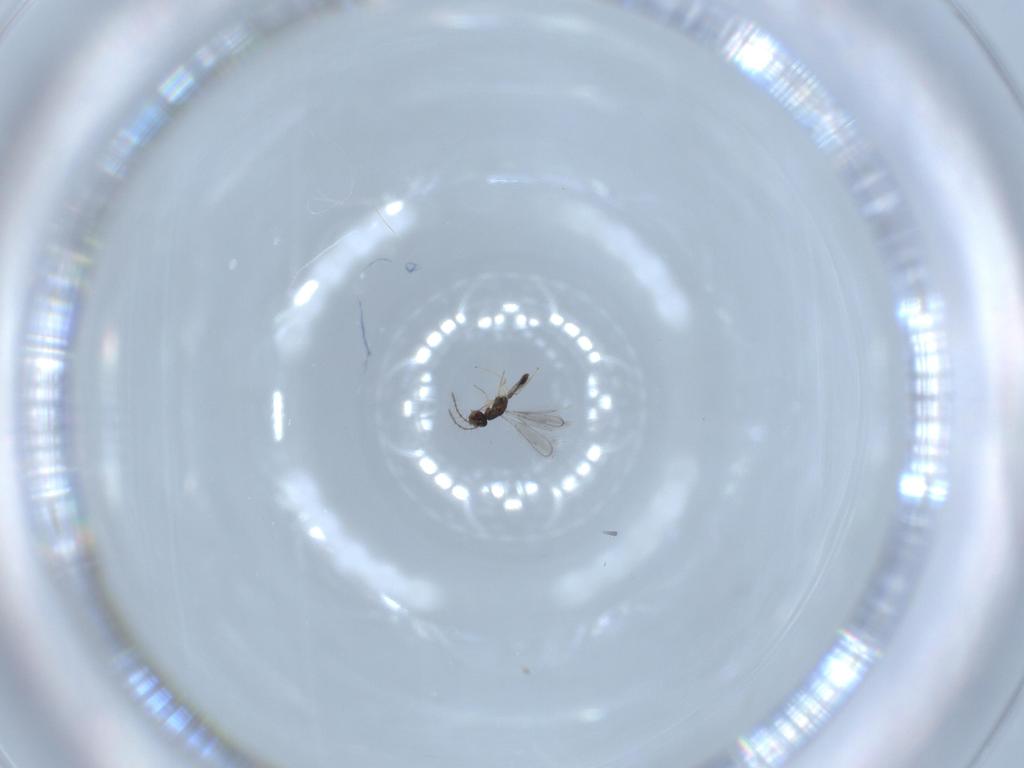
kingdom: Animalia
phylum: Arthropoda
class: Insecta
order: Hymenoptera
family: Pteromalidae
